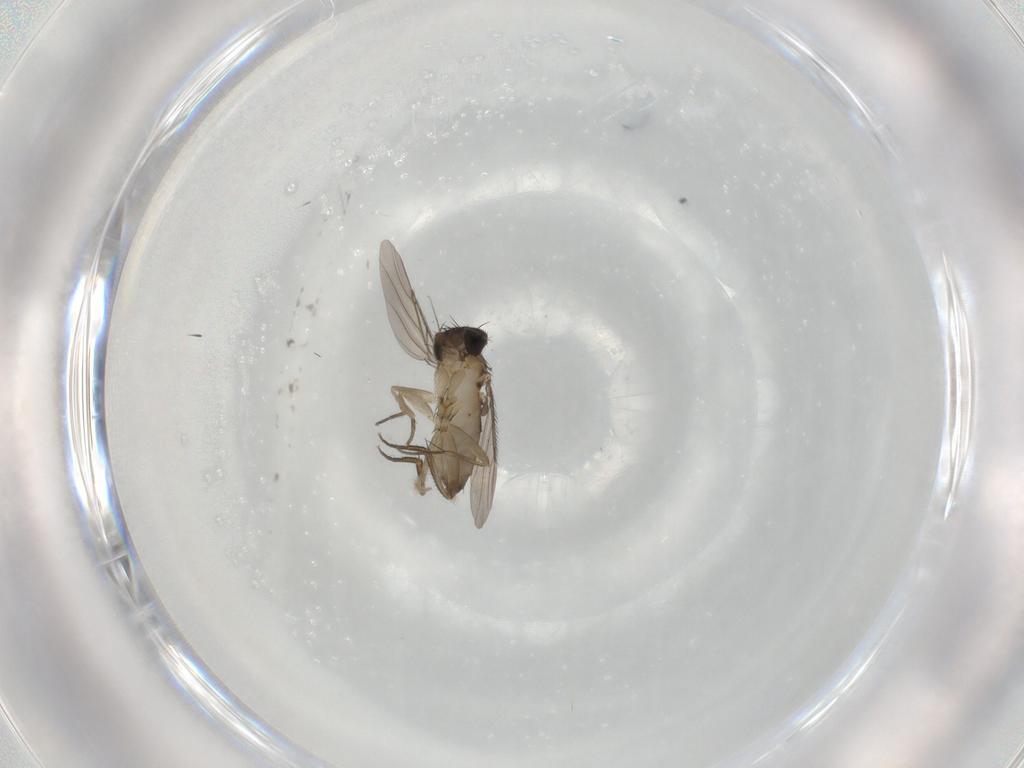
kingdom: Animalia
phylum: Arthropoda
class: Insecta
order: Diptera
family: Phoridae
